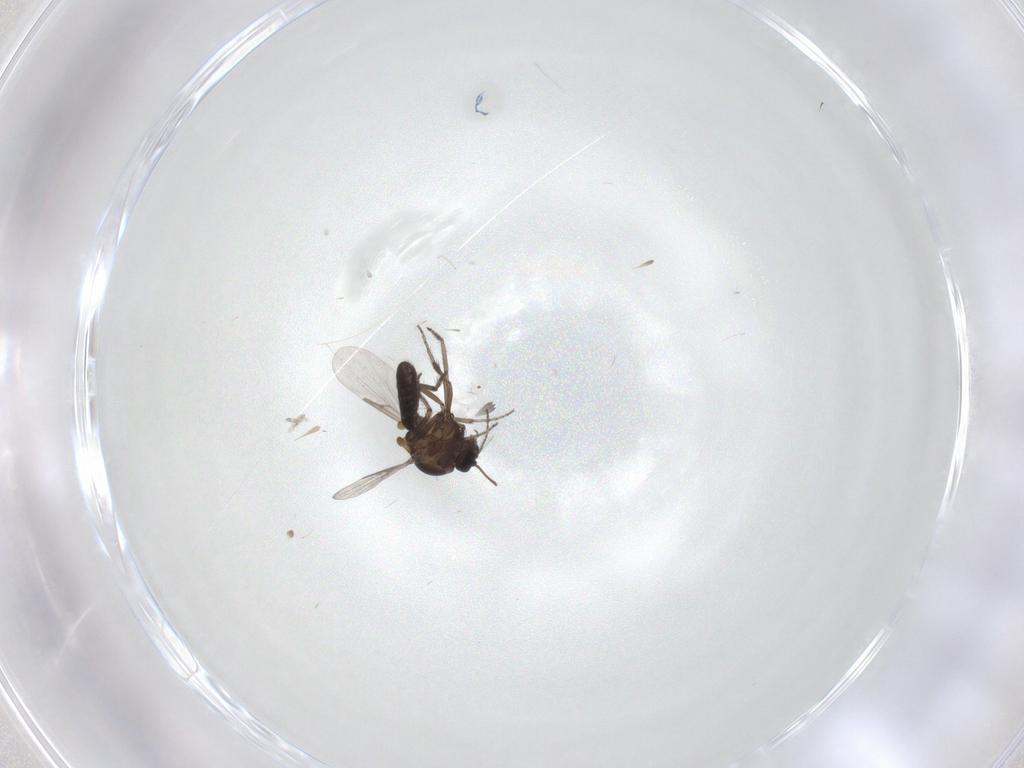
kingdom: Animalia
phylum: Arthropoda
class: Insecta
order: Diptera
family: Ceratopogonidae
